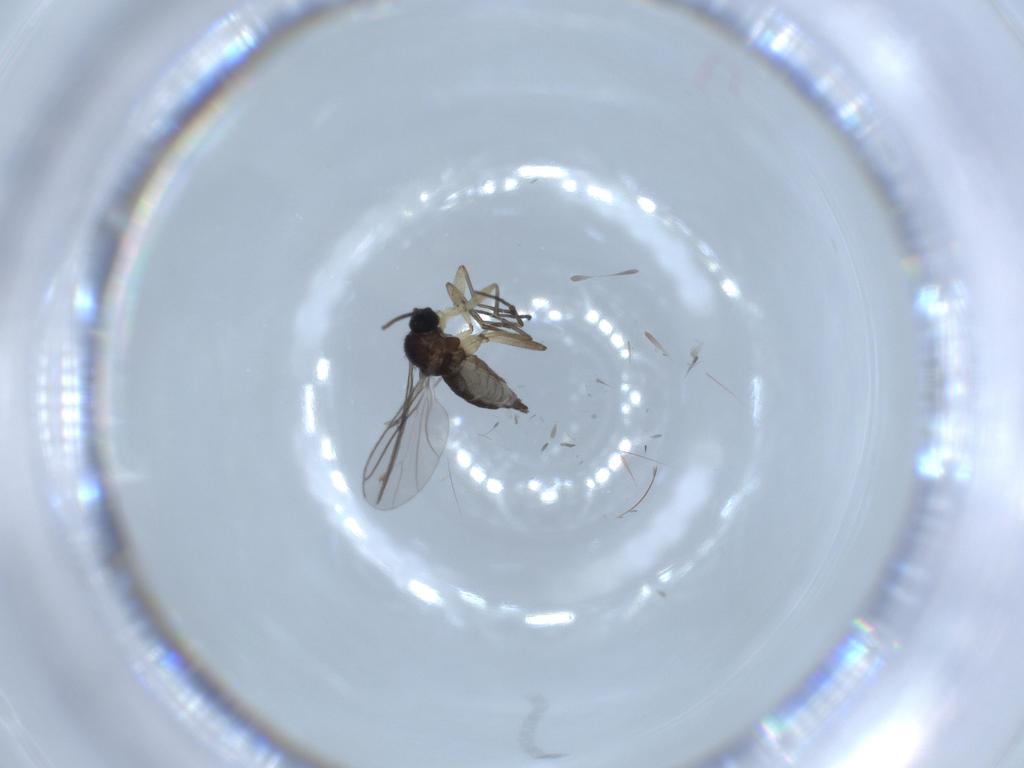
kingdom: Animalia
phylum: Arthropoda
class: Insecta
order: Diptera
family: Sciaridae
